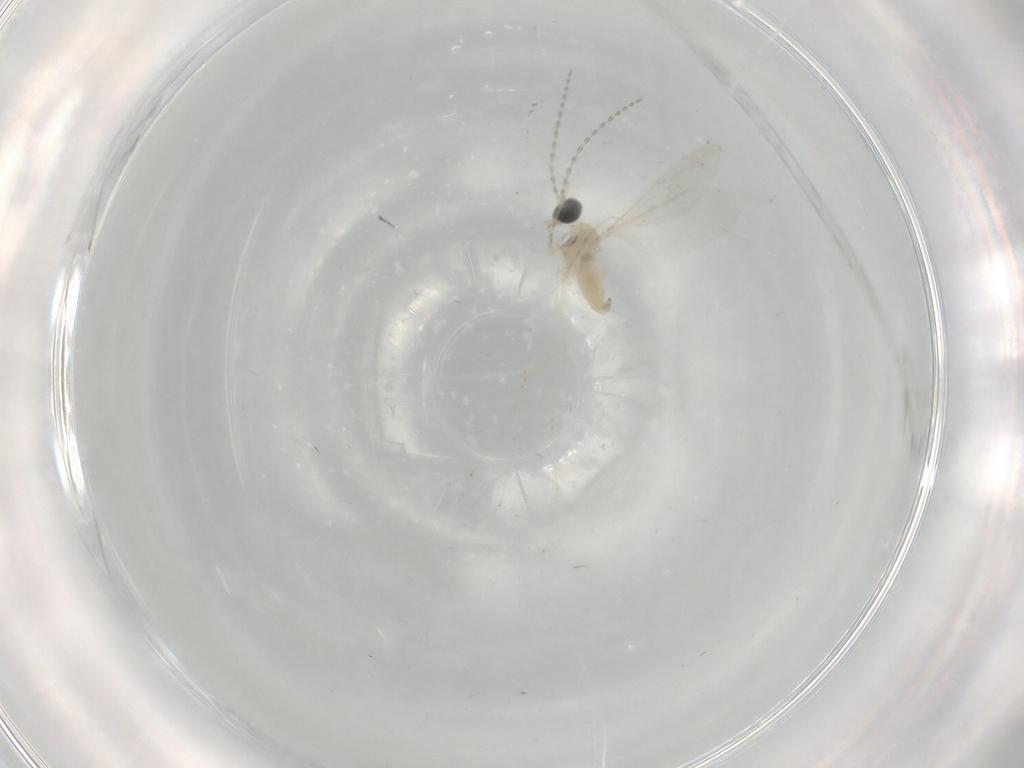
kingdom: Animalia
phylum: Arthropoda
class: Insecta
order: Diptera
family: Cecidomyiidae
